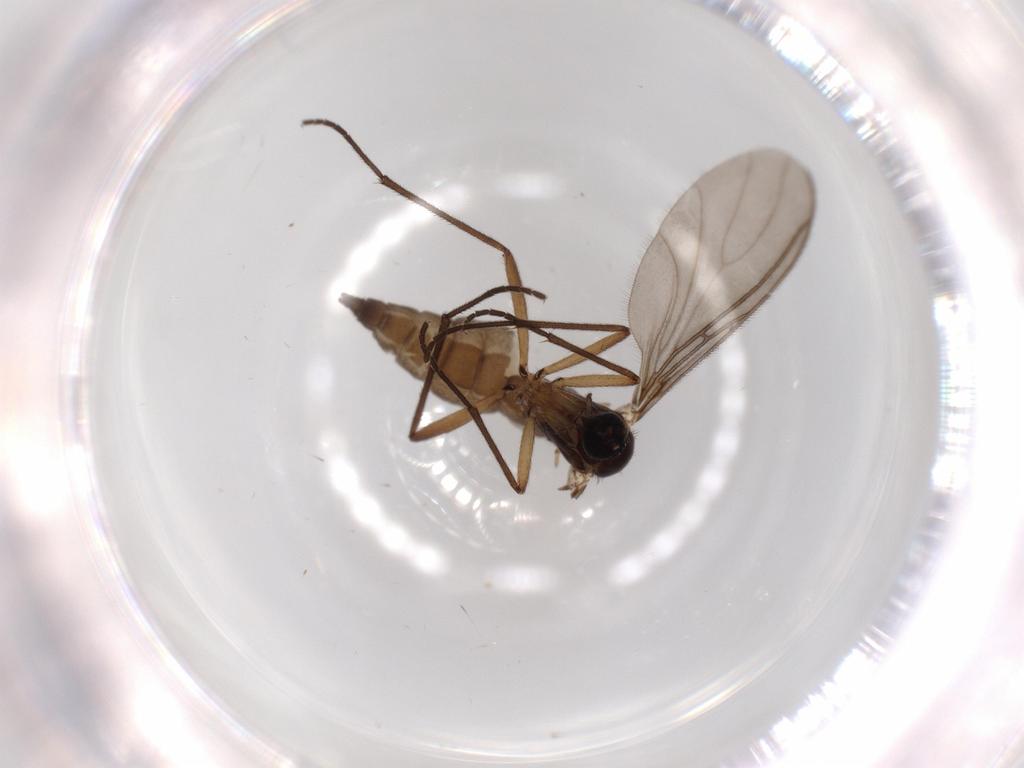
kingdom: Animalia
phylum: Arthropoda
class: Insecta
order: Diptera
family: Sciaridae
